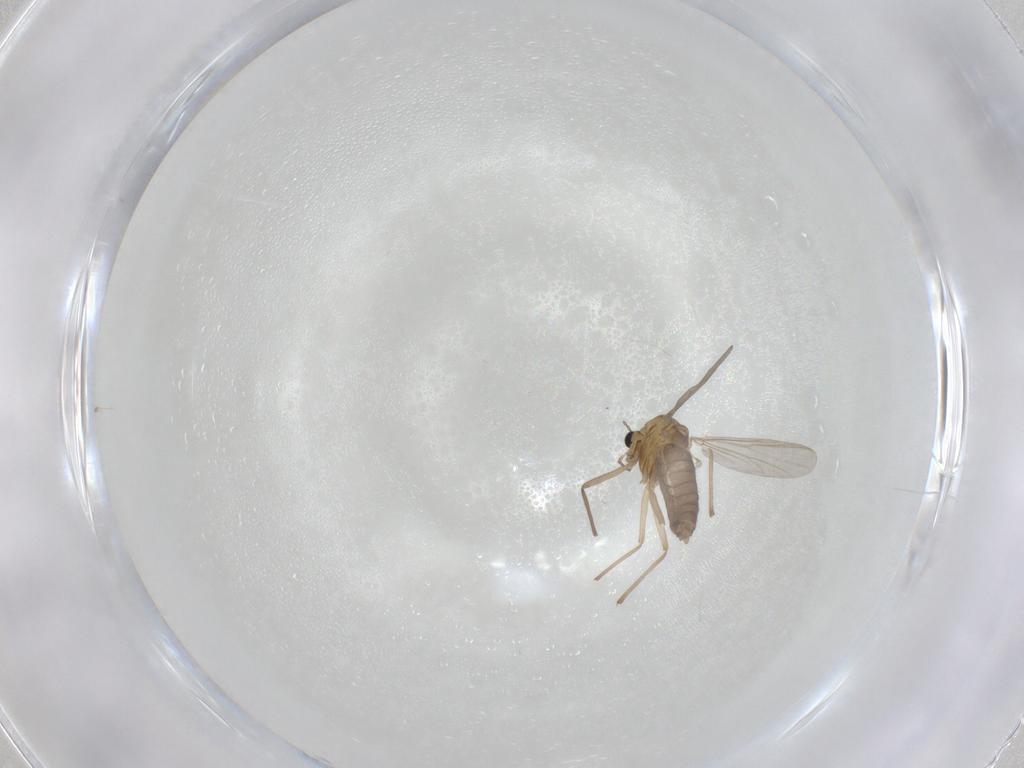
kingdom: Animalia
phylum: Arthropoda
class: Insecta
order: Diptera
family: Chironomidae
